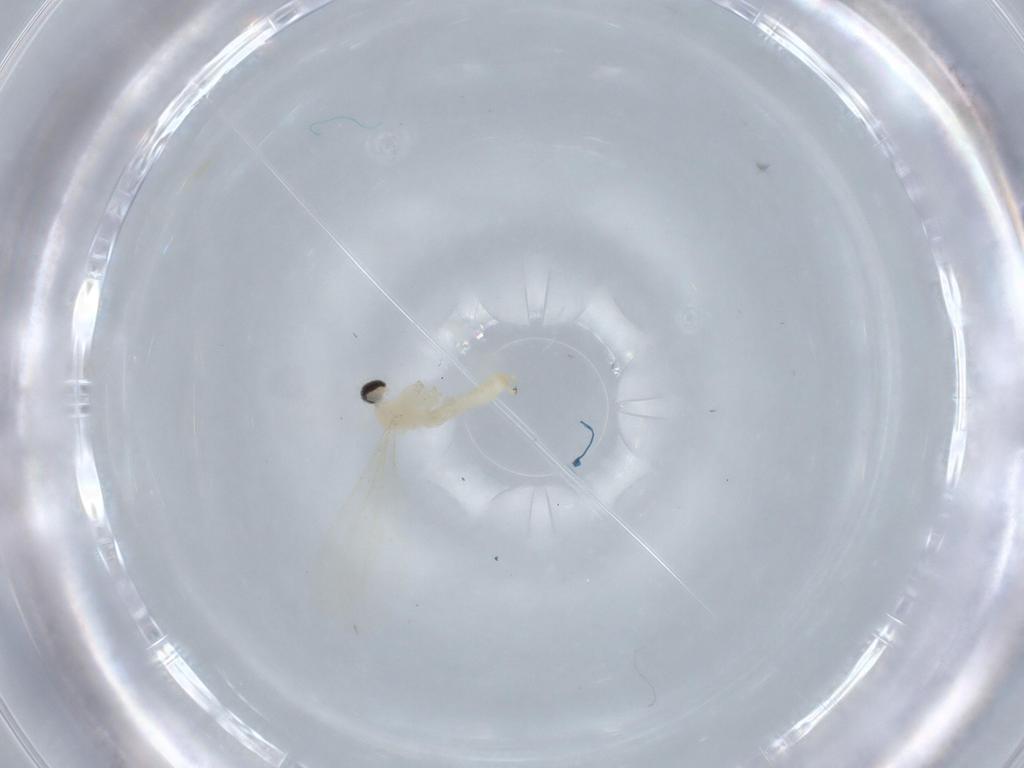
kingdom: Animalia
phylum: Arthropoda
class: Insecta
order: Diptera
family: Cecidomyiidae
